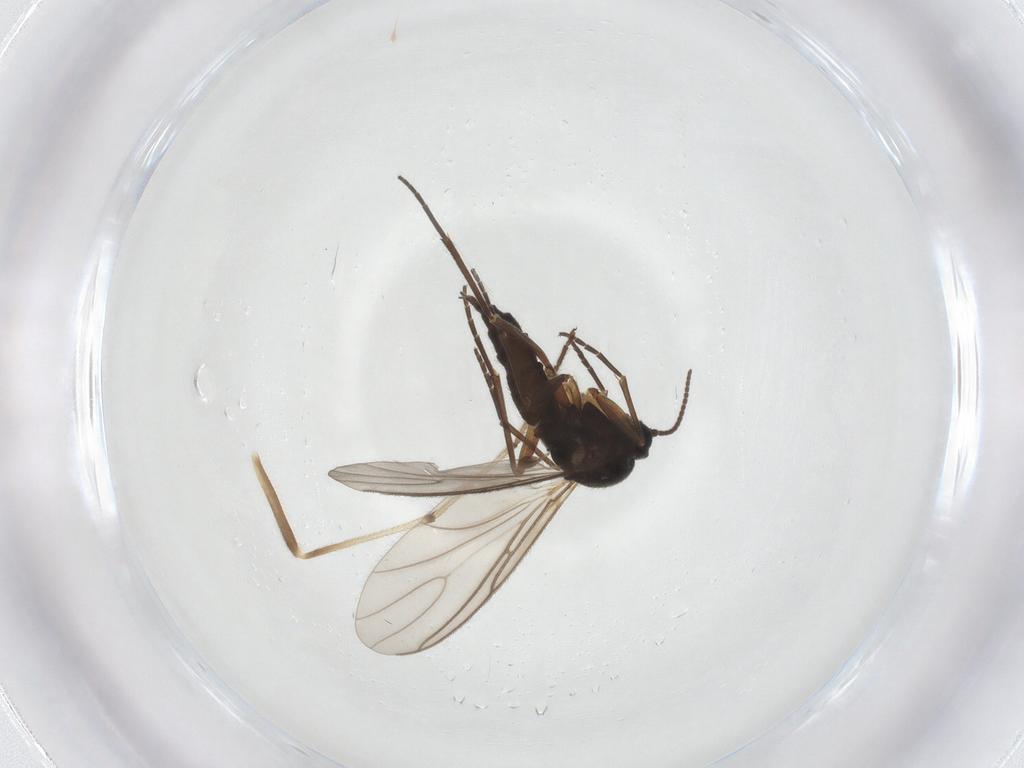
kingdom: Animalia
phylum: Arthropoda
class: Insecta
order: Diptera
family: Sciaridae
